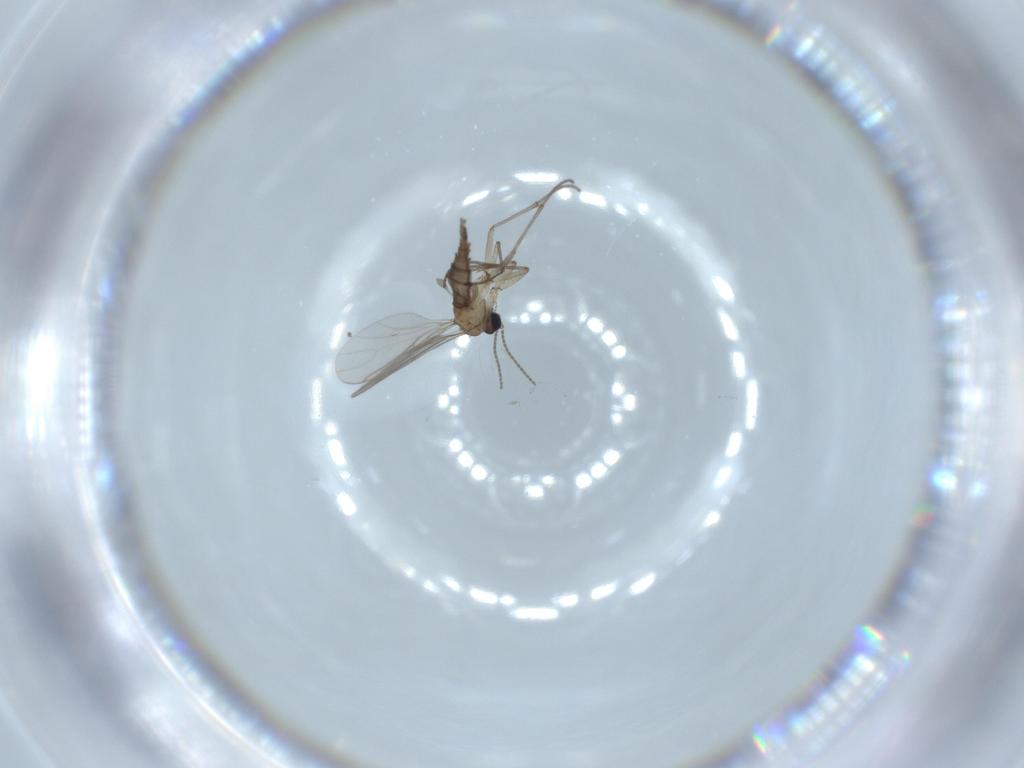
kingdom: Animalia
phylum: Arthropoda
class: Insecta
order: Diptera
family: Sciaridae
